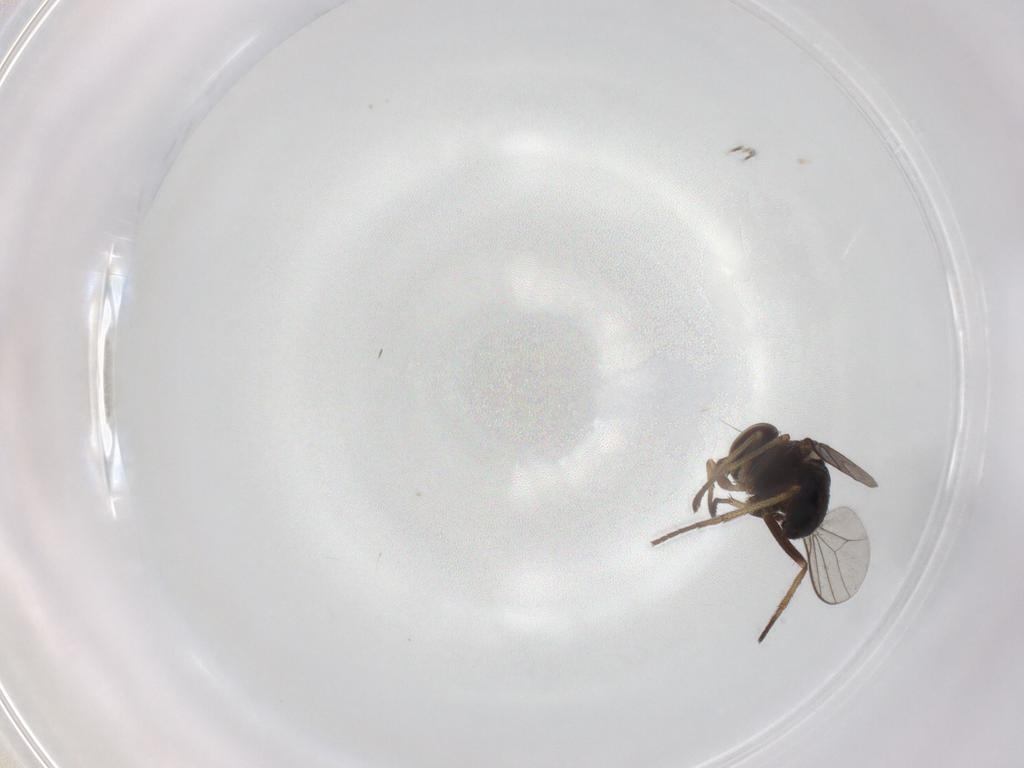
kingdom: Animalia
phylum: Arthropoda
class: Insecta
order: Diptera
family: Dolichopodidae
